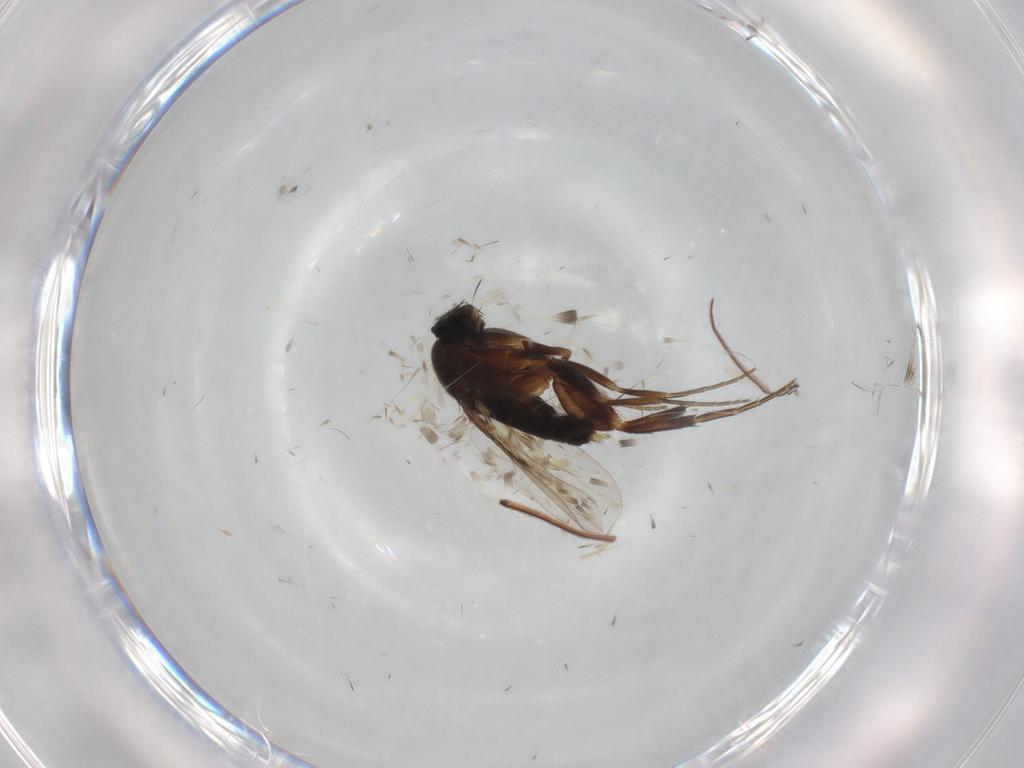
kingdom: Animalia
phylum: Arthropoda
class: Insecta
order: Diptera
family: Phoridae
